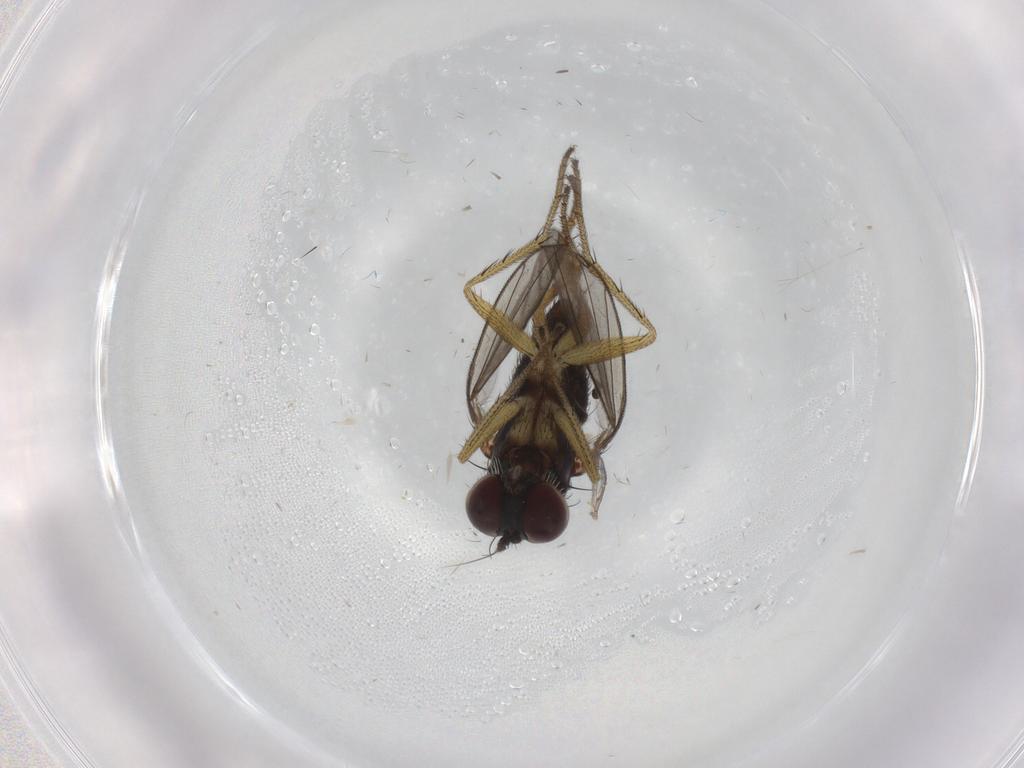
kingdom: Animalia
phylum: Arthropoda
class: Insecta
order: Diptera
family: Dolichopodidae
